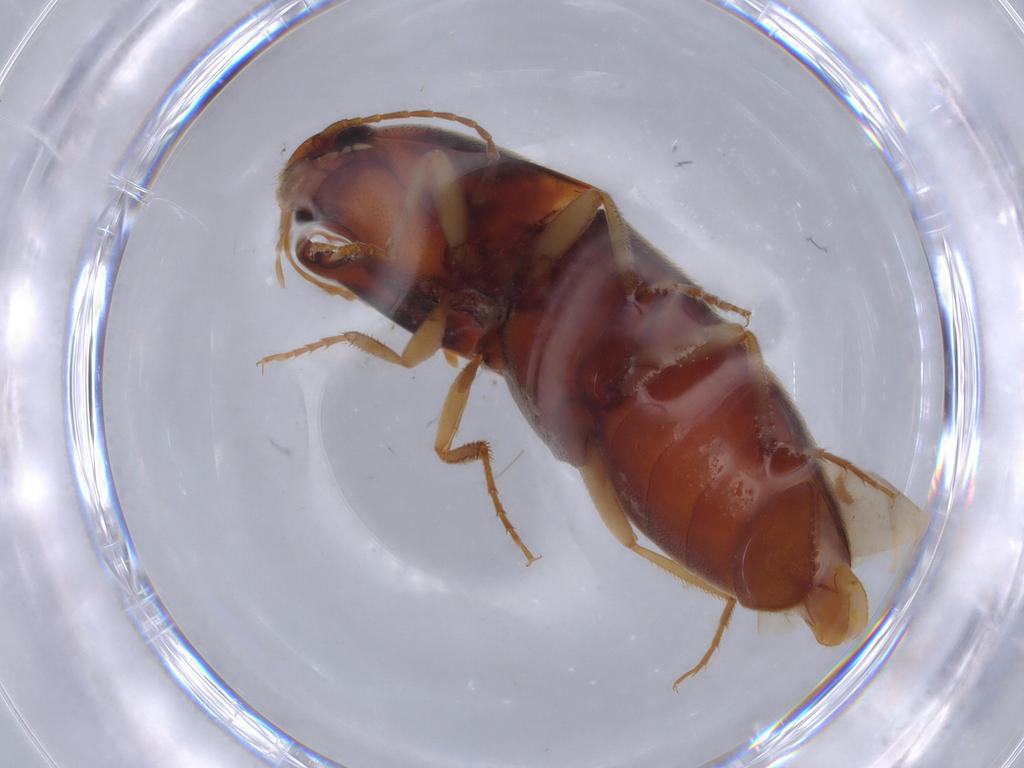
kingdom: Animalia
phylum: Arthropoda
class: Insecta
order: Coleoptera
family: Elateridae
